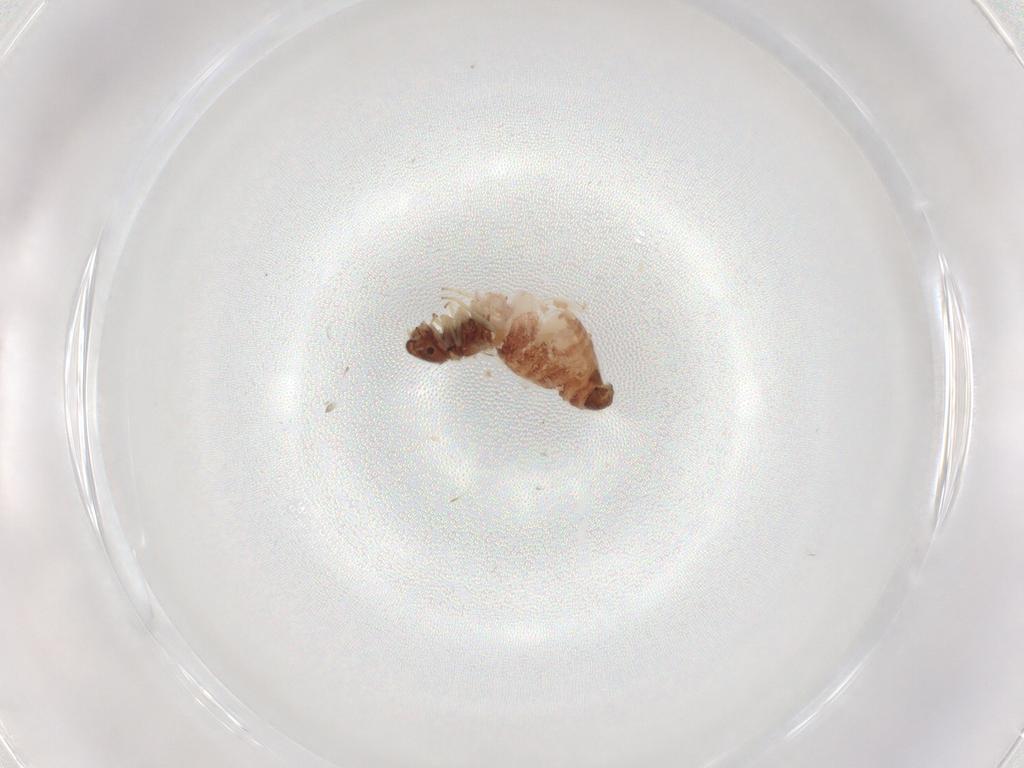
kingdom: Animalia
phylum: Arthropoda
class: Insecta
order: Psocodea
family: Archipsocidae
